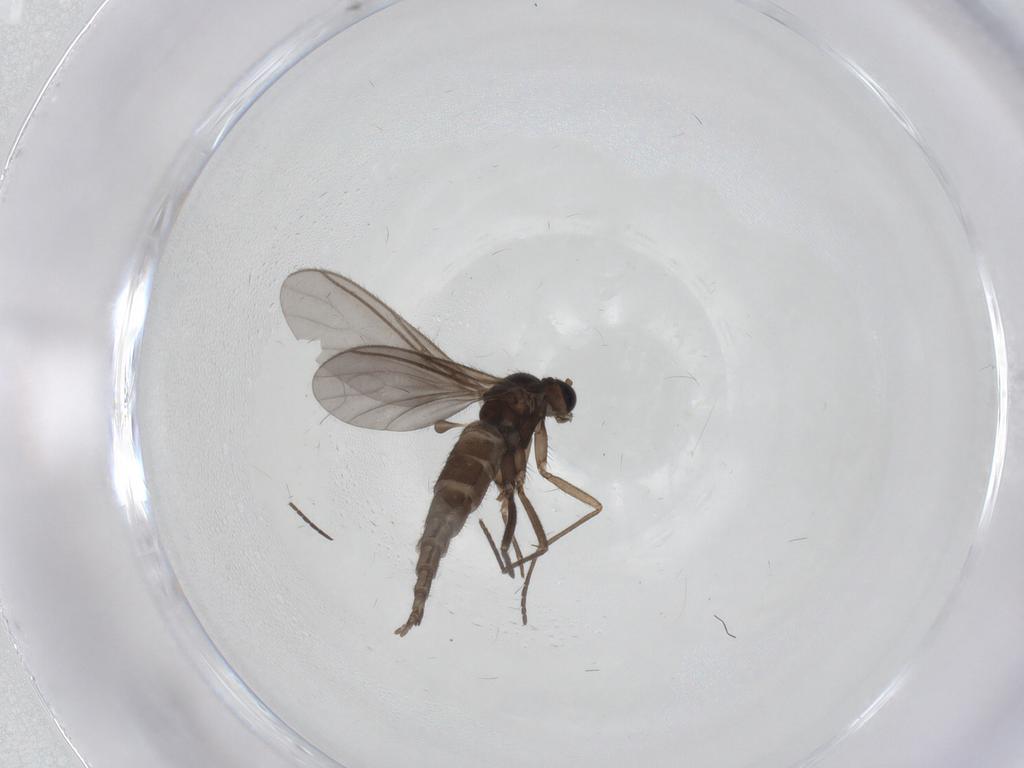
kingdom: Animalia
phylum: Arthropoda
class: Insecta
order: Diptera
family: Sciaridae
